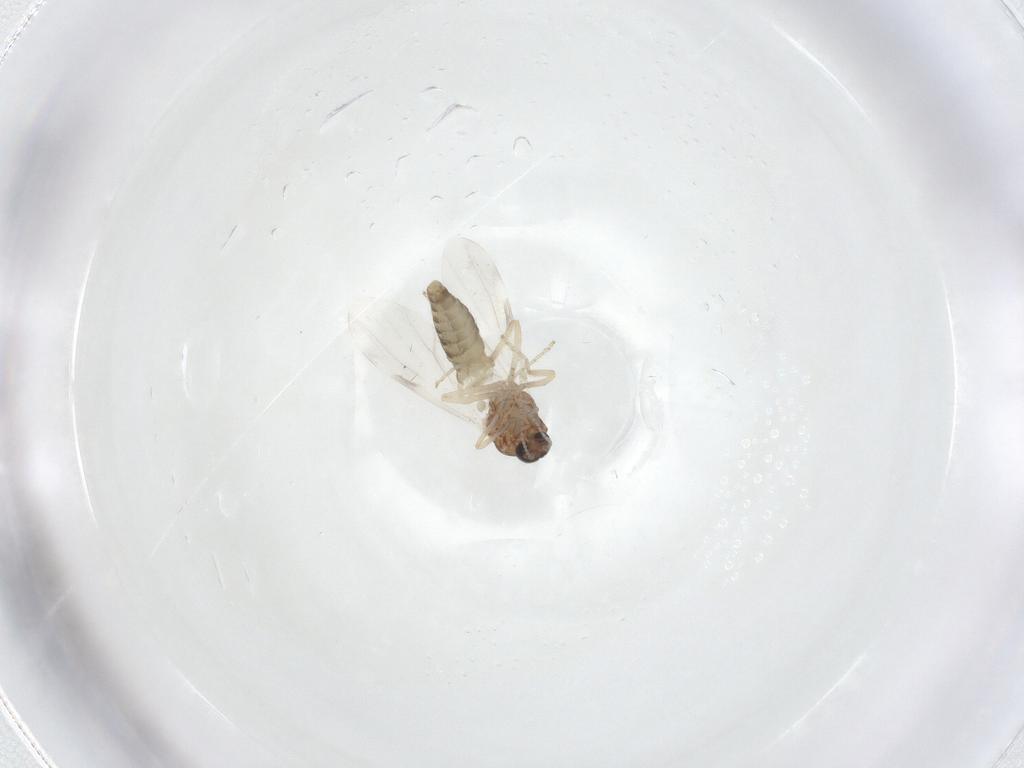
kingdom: Animalia
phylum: Arthropoda
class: Insecta
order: Diptera
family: Ceratopogonidae
